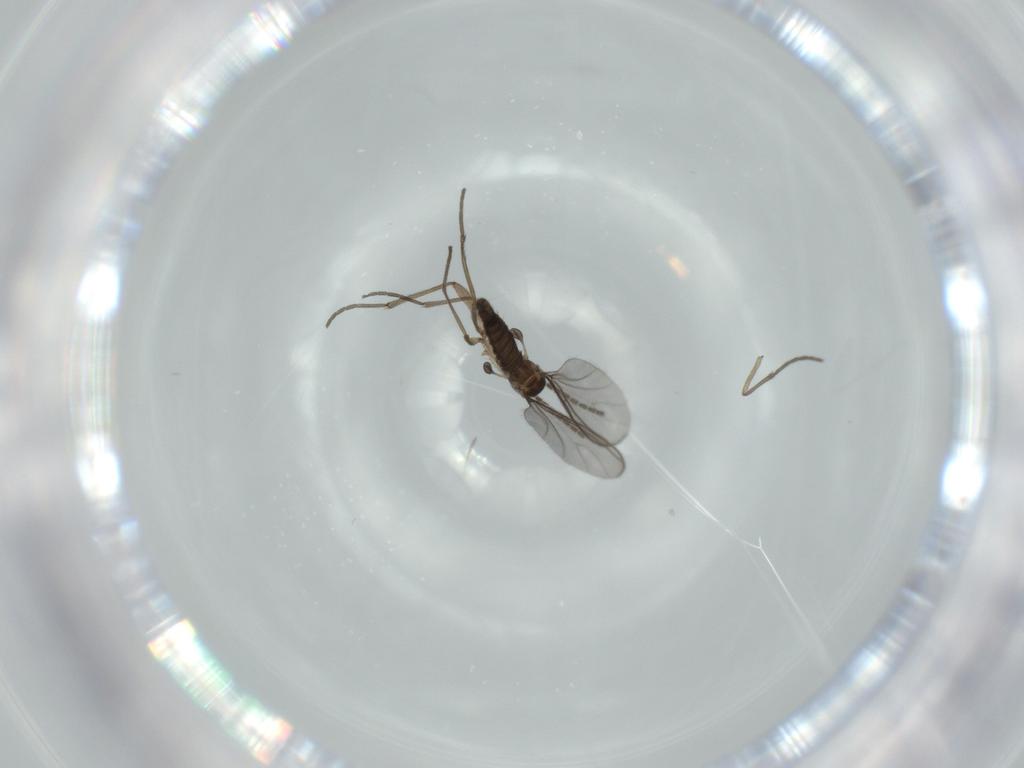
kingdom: Animalia
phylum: Arthropoda
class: Insecta
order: Diptera
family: Sciaridae
